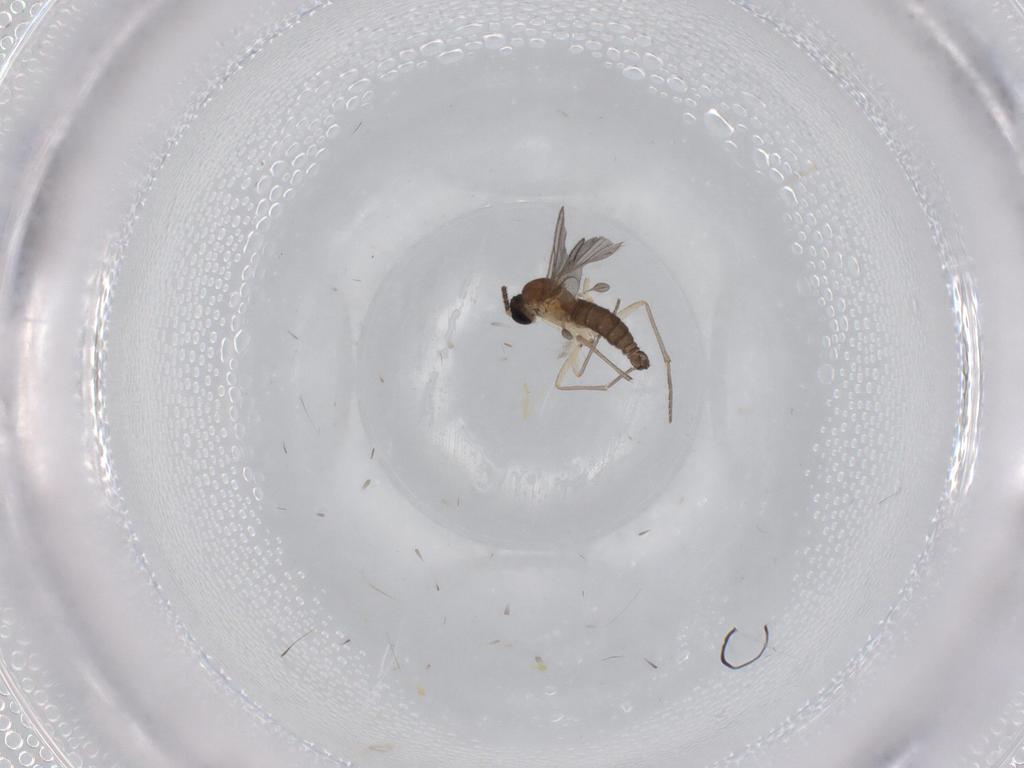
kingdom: Animalia
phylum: Arthropoda
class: Insecta
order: Diptera
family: Sciaridae
